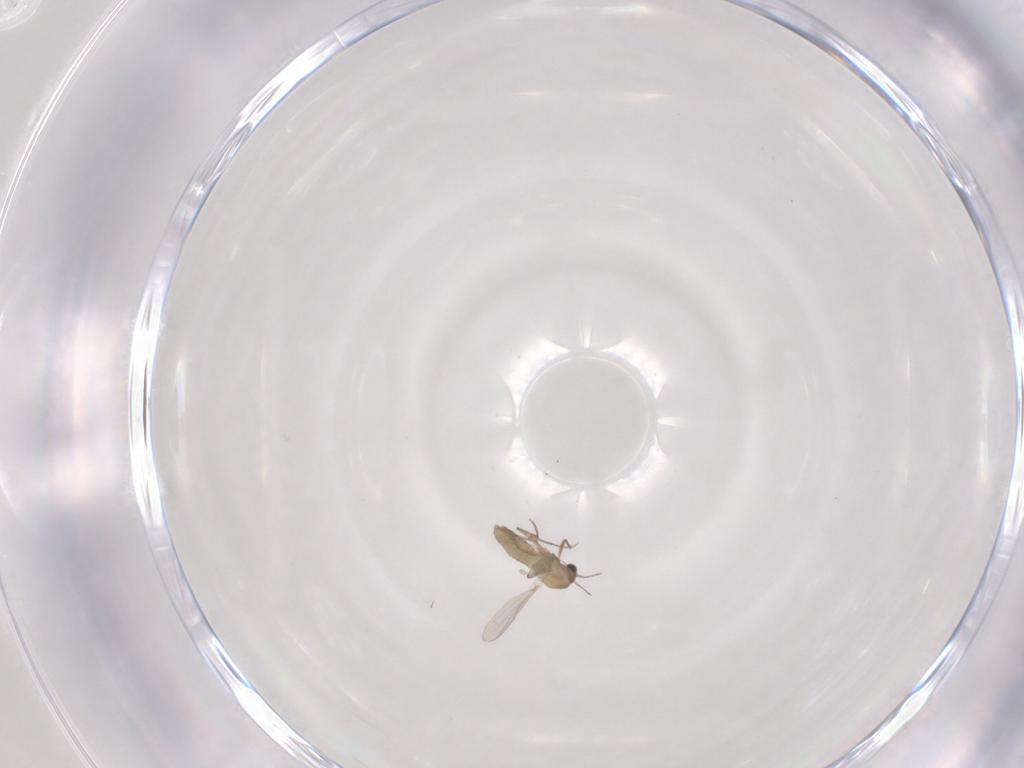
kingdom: Animalia
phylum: Arthropoda
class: Insecta
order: Diptera
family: Chironomidae
